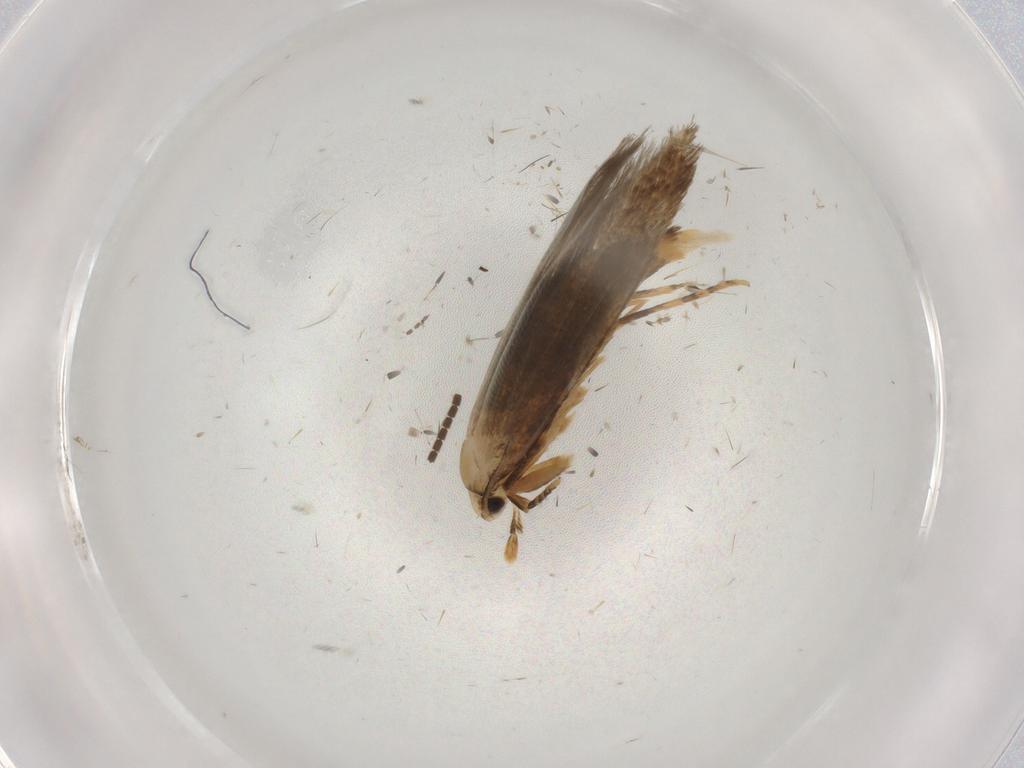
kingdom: Animalia
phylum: Arthropoda
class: Insecta
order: Lepidoptera
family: Tineidae
